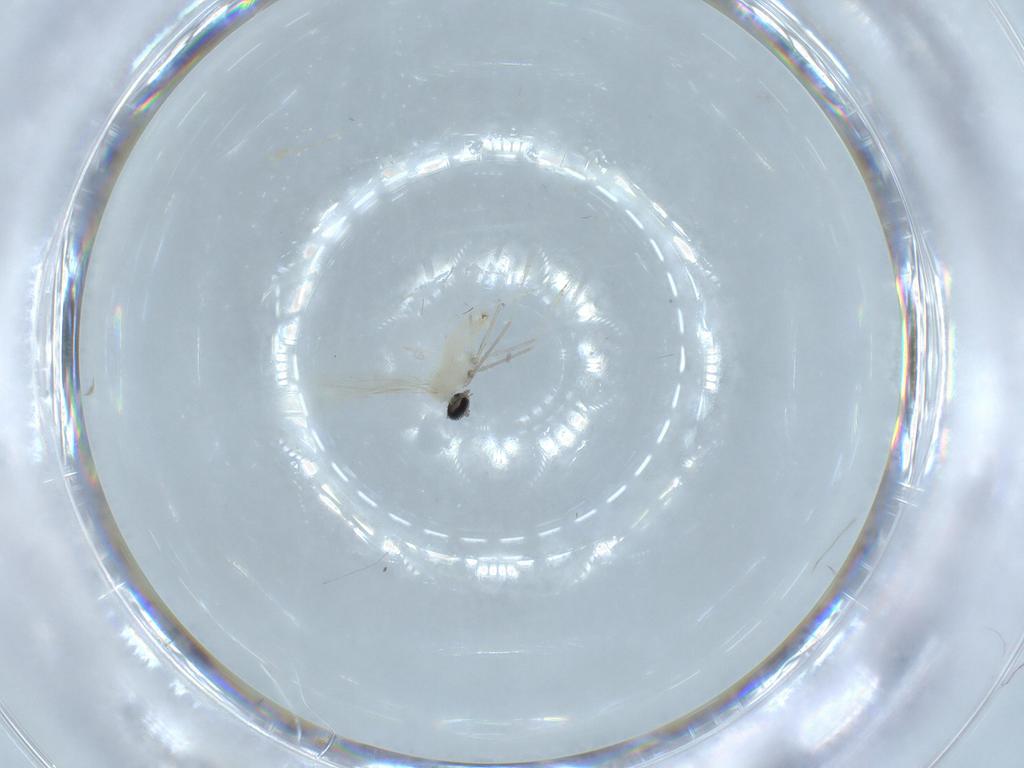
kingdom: Animalia
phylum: Arthropoda
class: Insecta
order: Diptera
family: Cecidomyiidae
